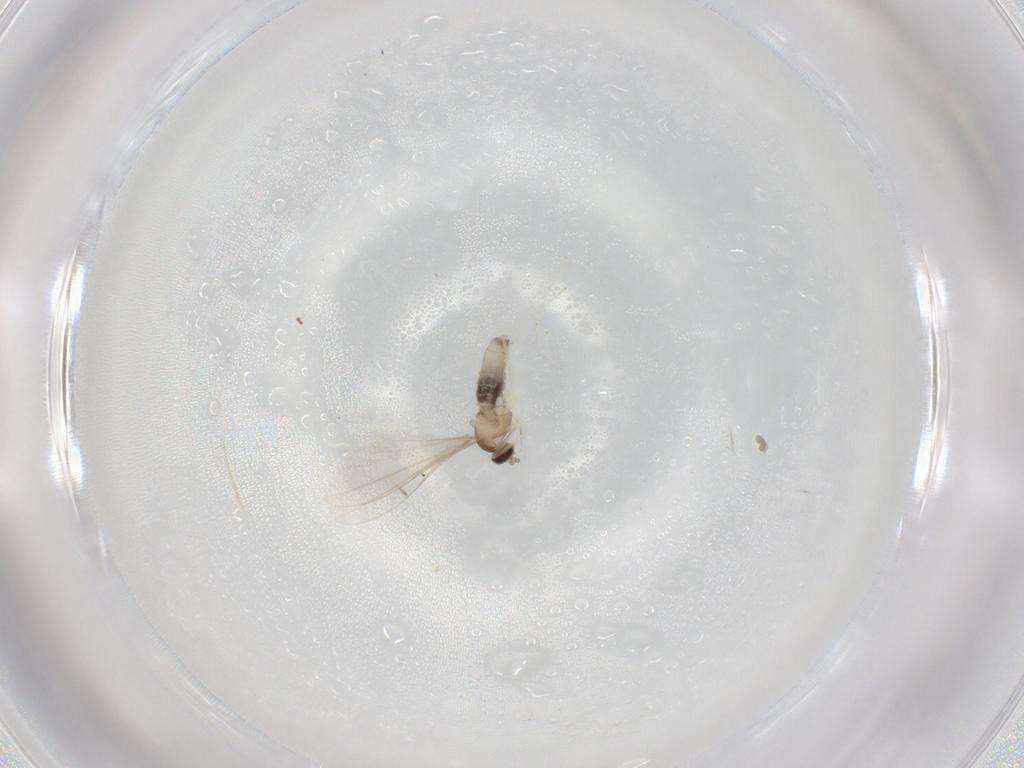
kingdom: Animalia
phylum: Arthropoda
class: Insecta
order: Diptera
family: Cecidomyiidae
